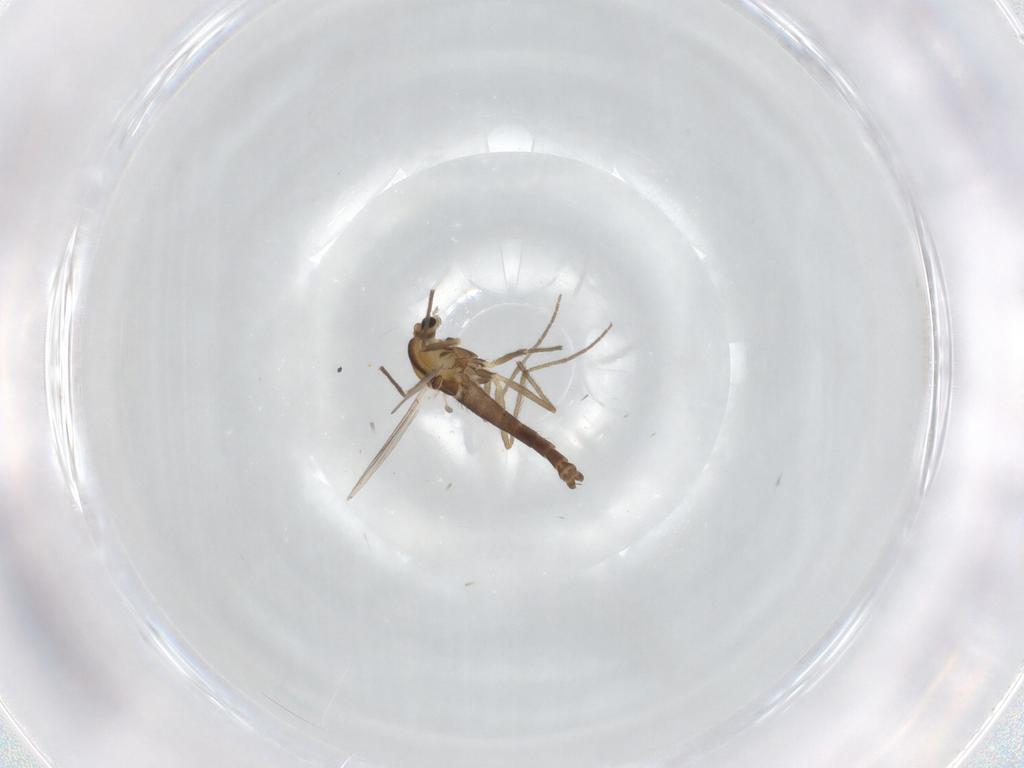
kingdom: Animalia
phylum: Arthropoda
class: Insecta
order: Diptera
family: Chironomidae
